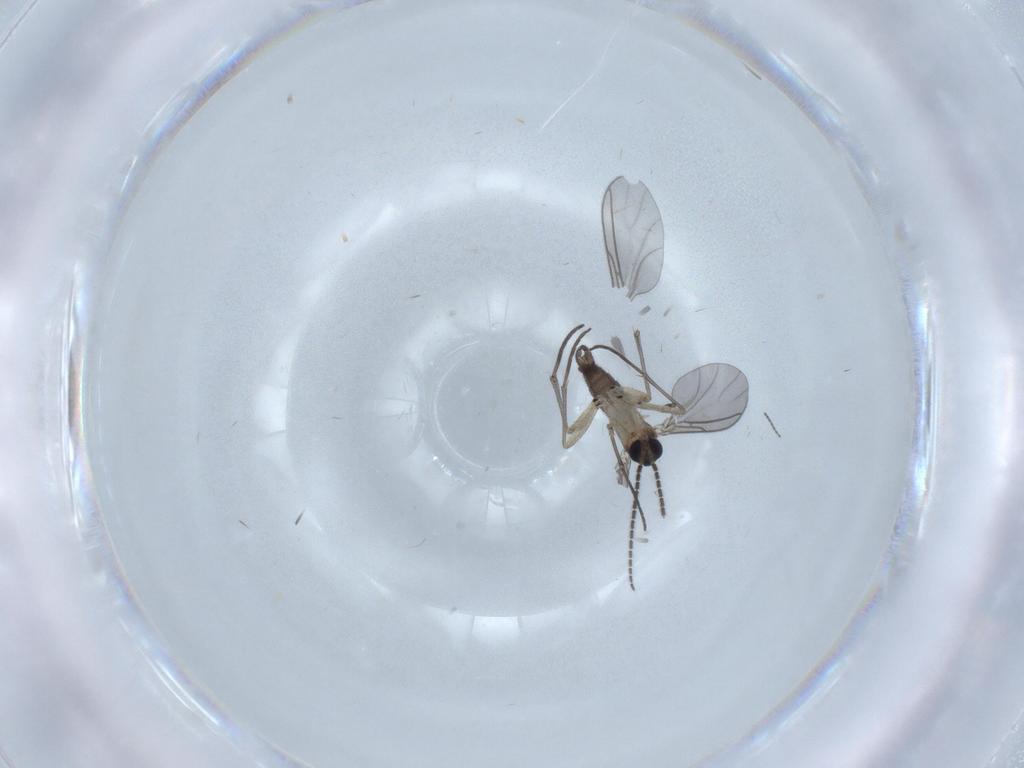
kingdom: Animalia
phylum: Arthropoda
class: Insecta
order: Diptera
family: Sciaridae
